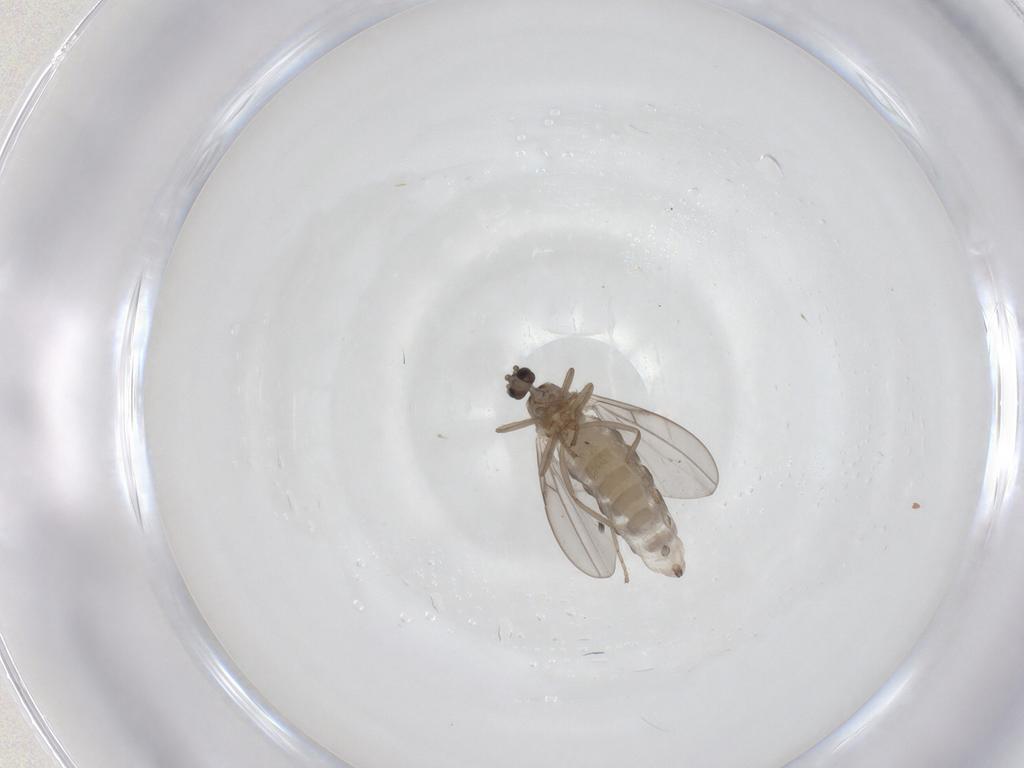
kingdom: Animalia
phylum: Arthropoda
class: Insecta
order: Diptera
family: Cecidomyiidae
